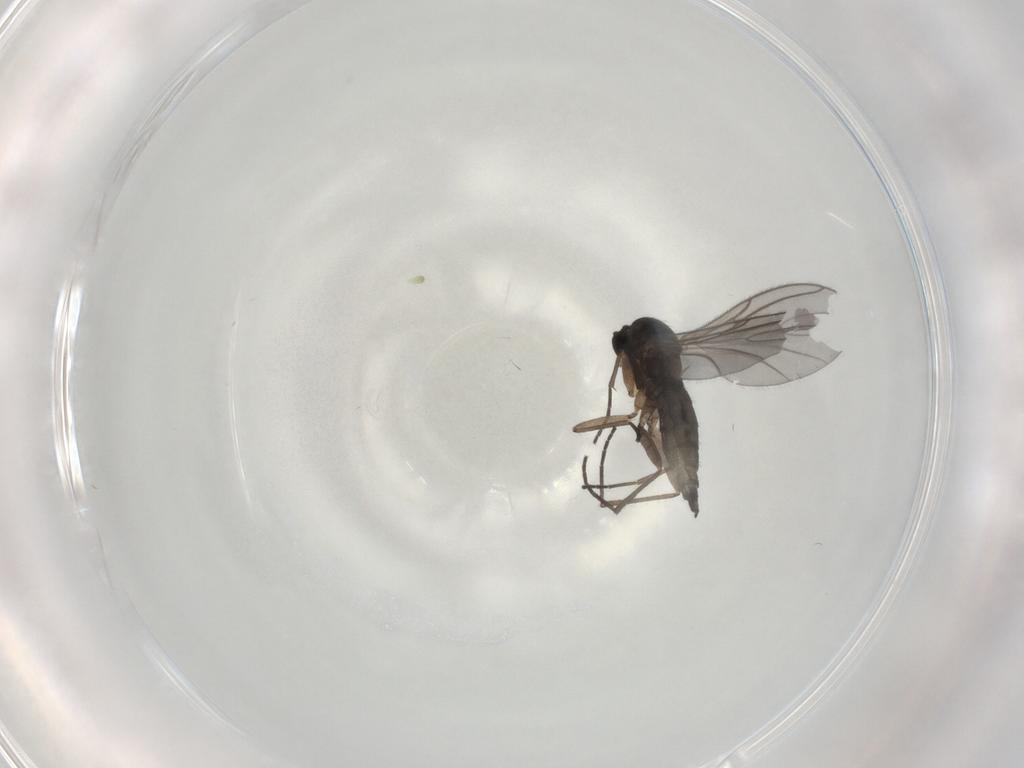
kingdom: Animalia
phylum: Arthropoda
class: Insecta
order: Diptera
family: Sciaridae
